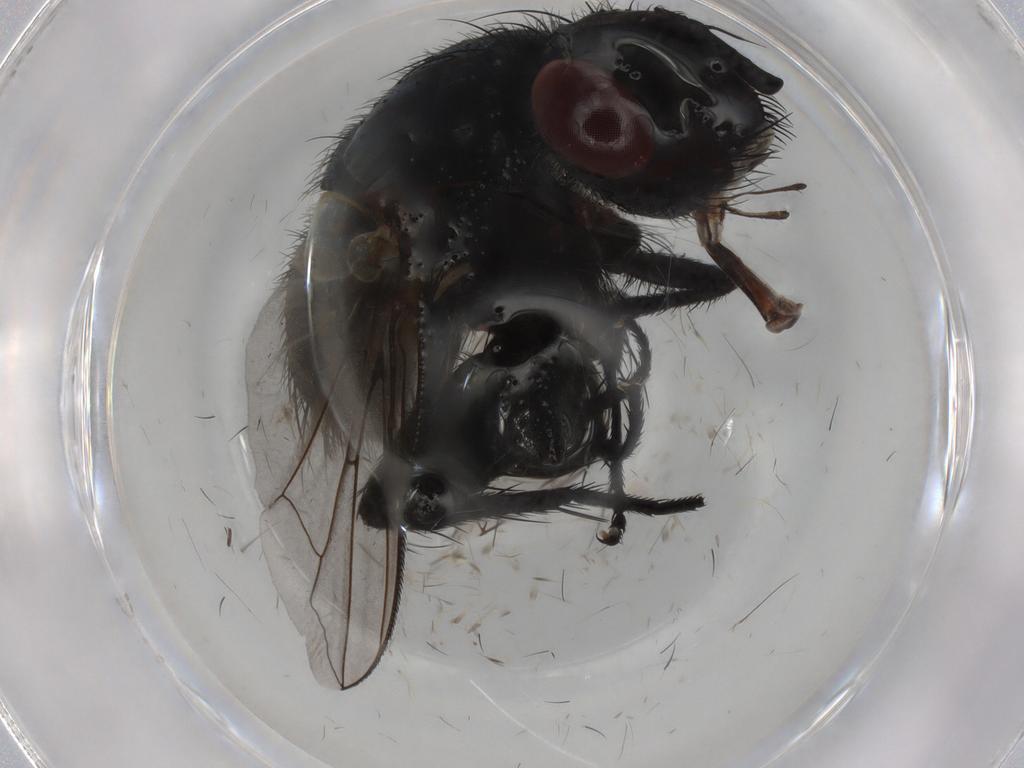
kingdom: Animalia
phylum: Arthropoda
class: Insecta
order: Diptera
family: Tachinidae
